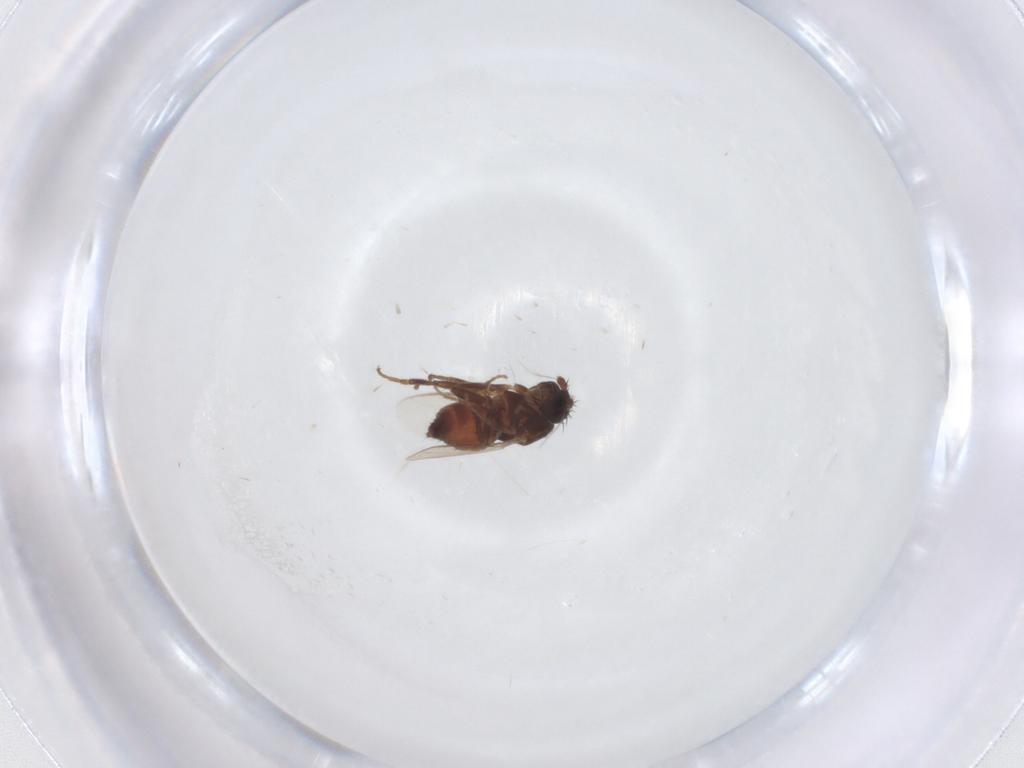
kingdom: Animalia
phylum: Arthropoda
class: Insecta
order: Diptera
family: Sphaeroceridae
